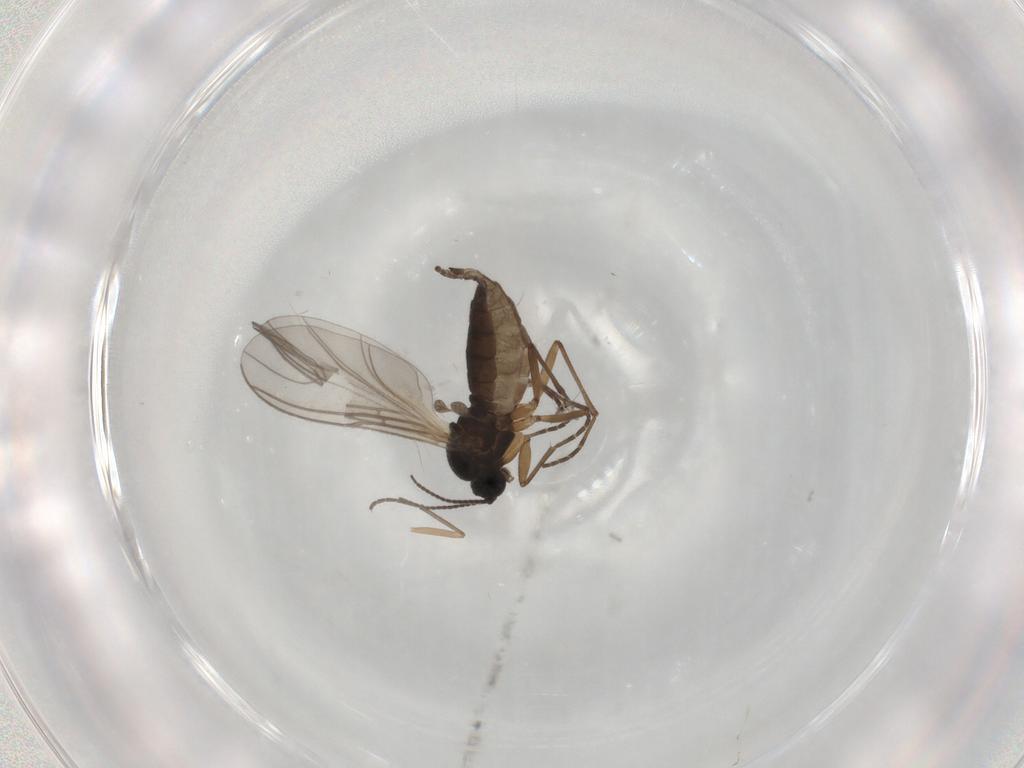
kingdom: Animalia
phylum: Arthropoda
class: Insecta
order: Diptera
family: Sciaridae
